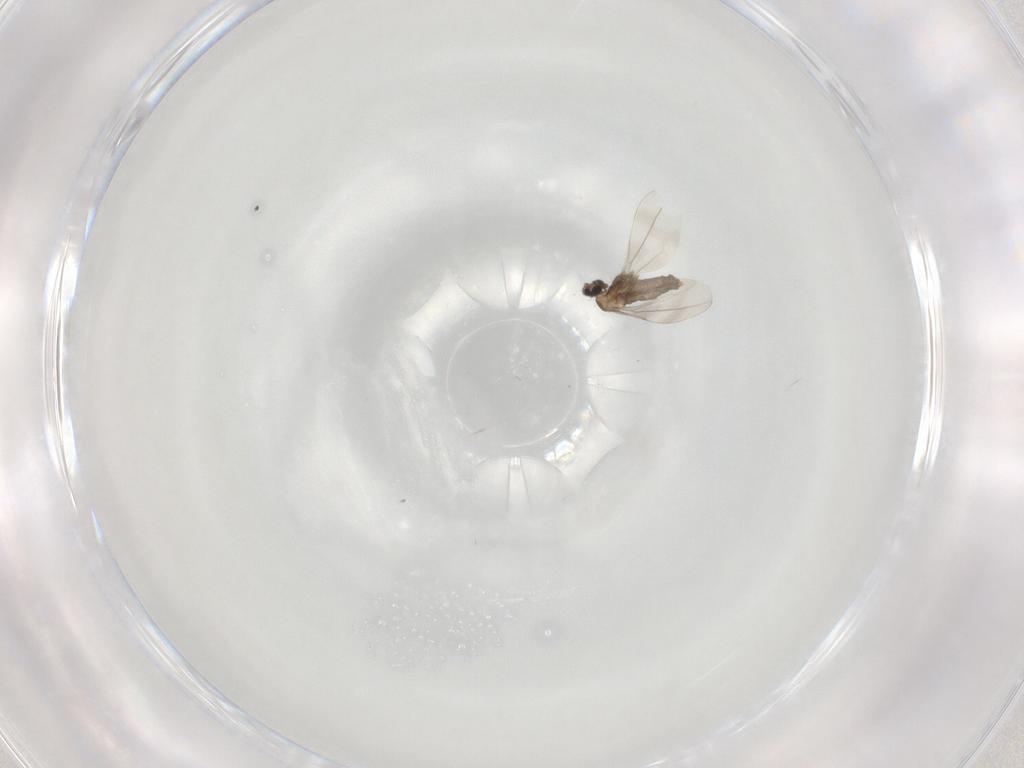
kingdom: Animalia
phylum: Arthropoda
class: Insecta
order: Diptera
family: Cecidomyiidae
